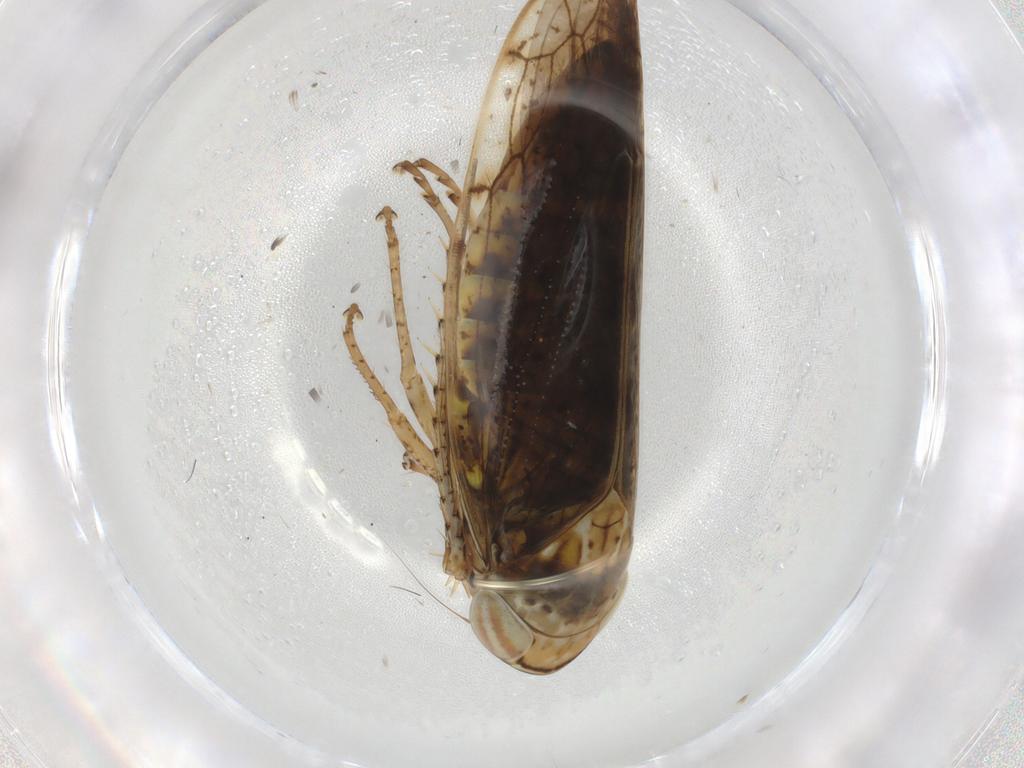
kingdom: Animalia
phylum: Arthropoda
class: Insecta
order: Hemiptera
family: Cicadellidae
